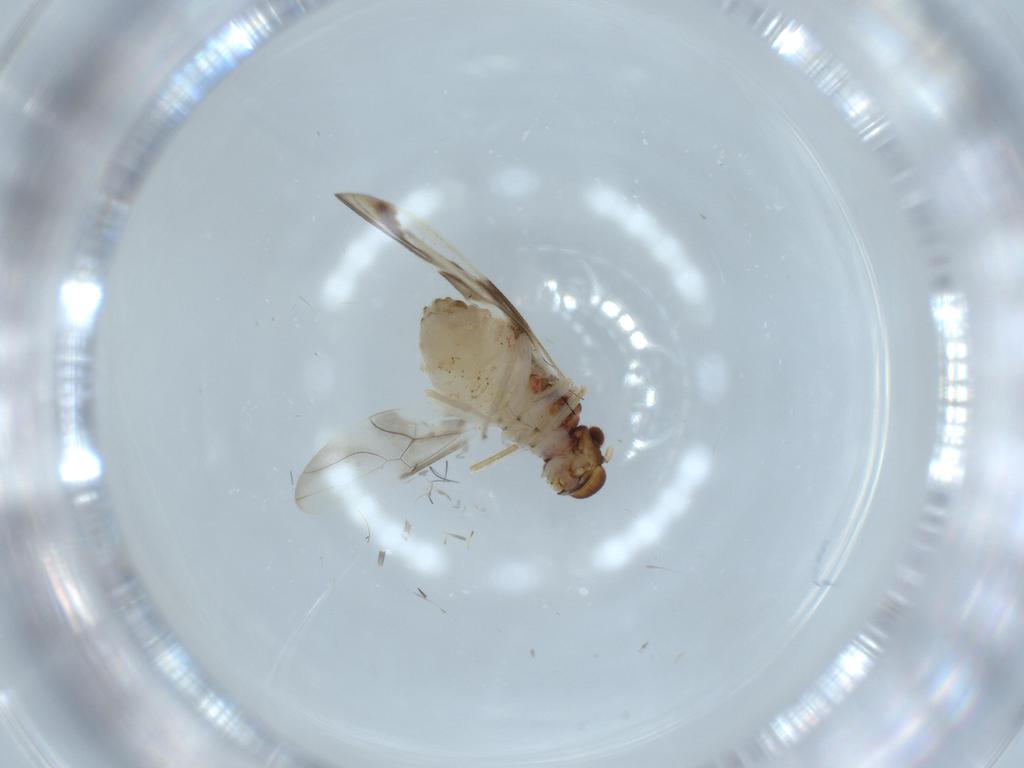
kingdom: Animalia
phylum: Arthropoda
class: Insecta
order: Psocodea
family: Caeciliusidae
